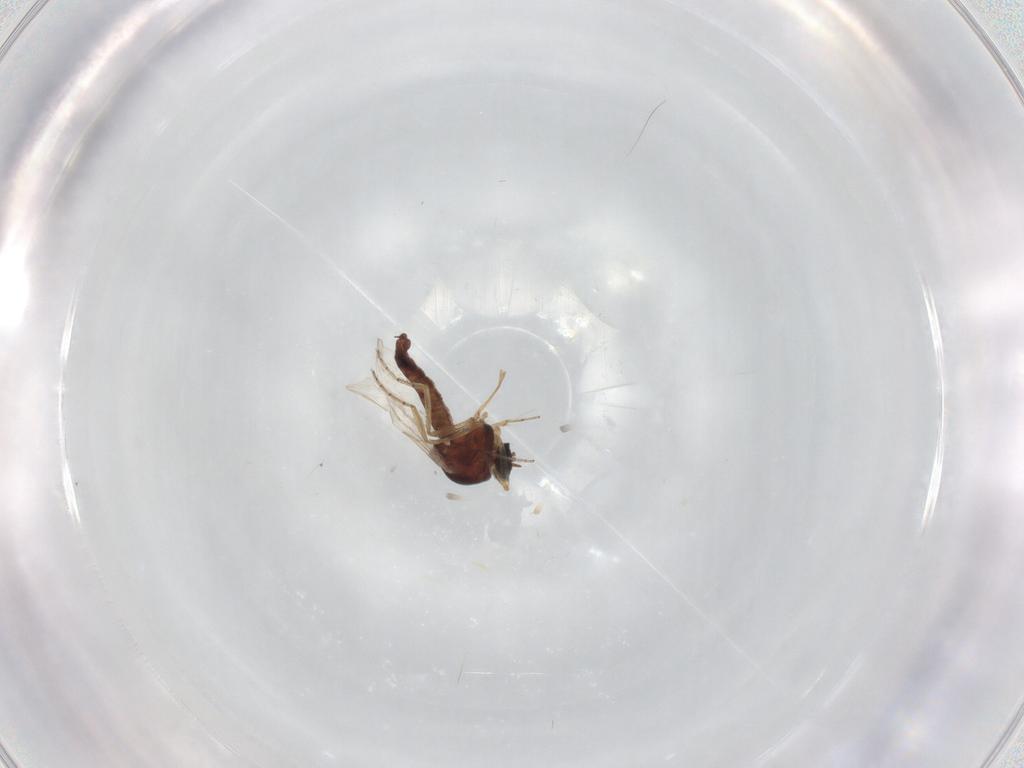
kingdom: Animalia
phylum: Arthropoda
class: Insecta
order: Diptera
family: Ceratopogonidae
